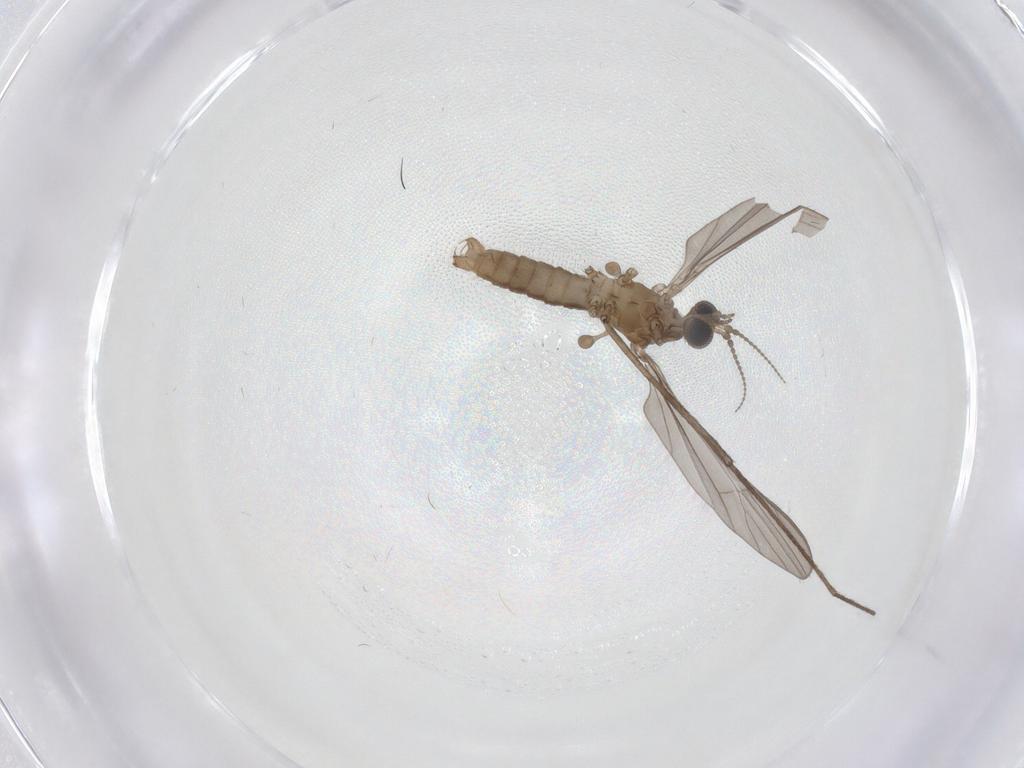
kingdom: Animalia
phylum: Arthropoda
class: Insecta
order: Diptera
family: Limoniidae
